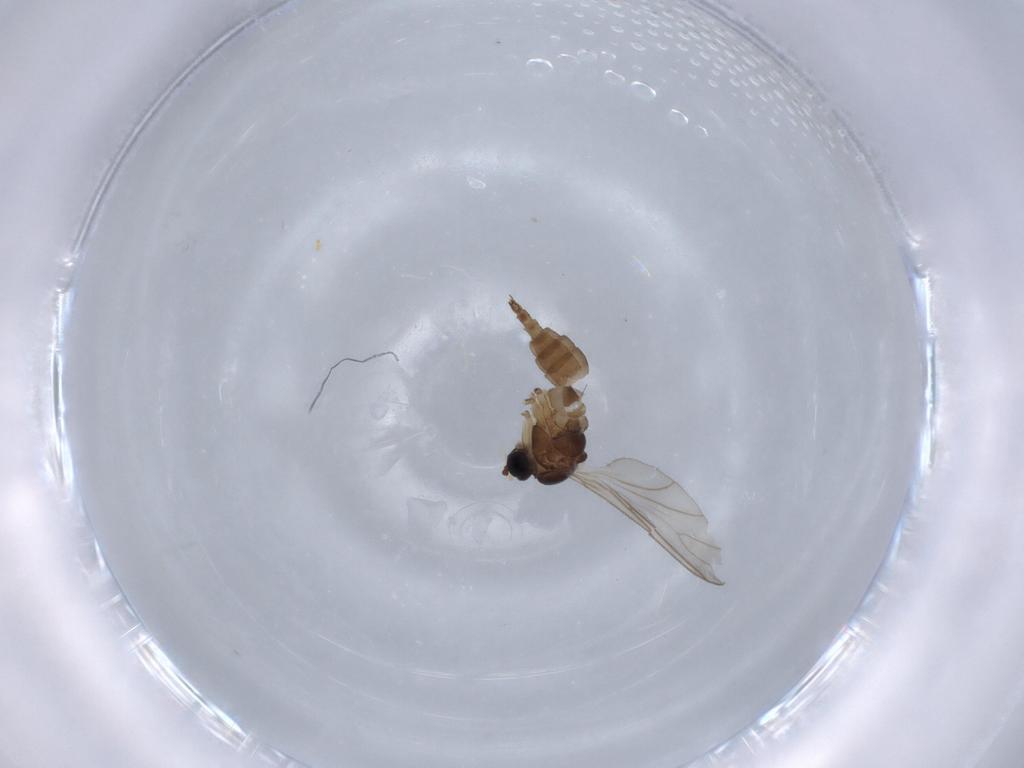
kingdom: Animalia
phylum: Arthropoda
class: Insecta
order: Diptera
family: Sciaridae
